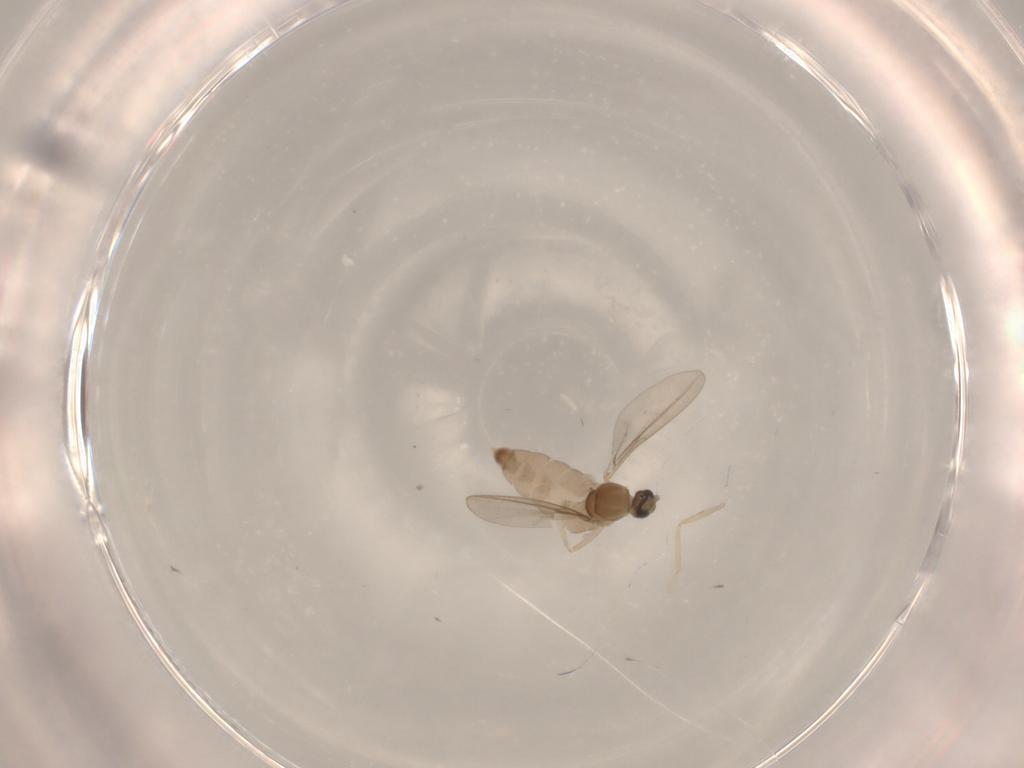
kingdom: Animalia
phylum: Arthropoda
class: Insecta
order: Diptera
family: Cecidomyiidae
